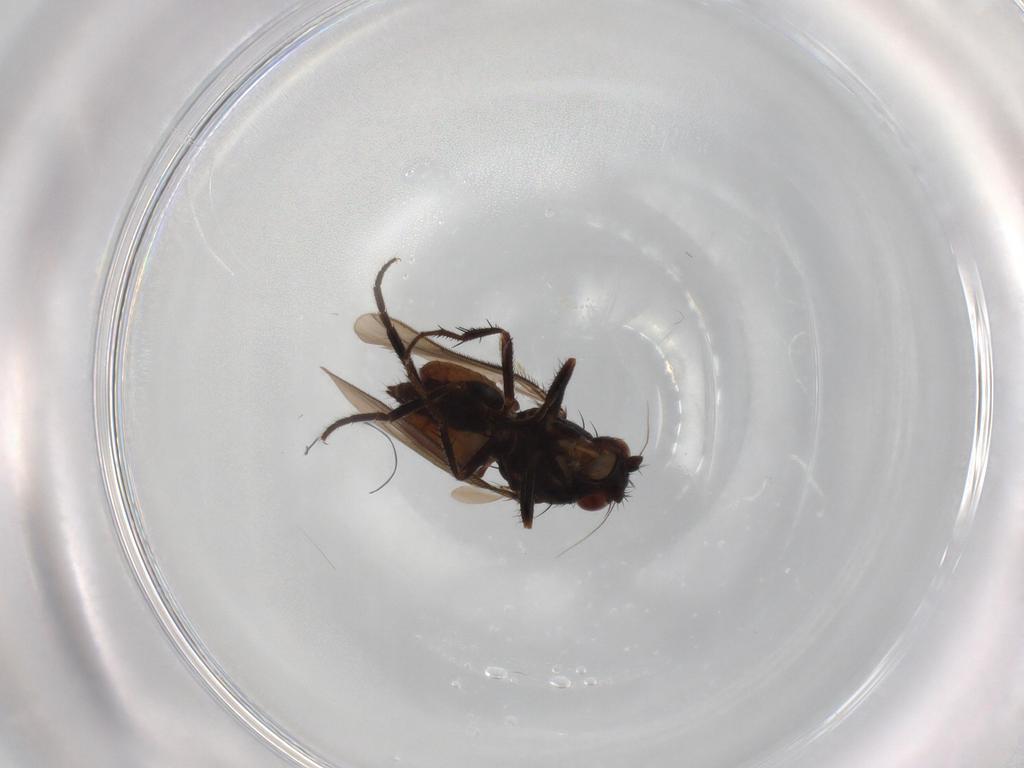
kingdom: Animalia
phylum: Arthropoda
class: Insecta
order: Diptera
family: Sphaeroceridae
